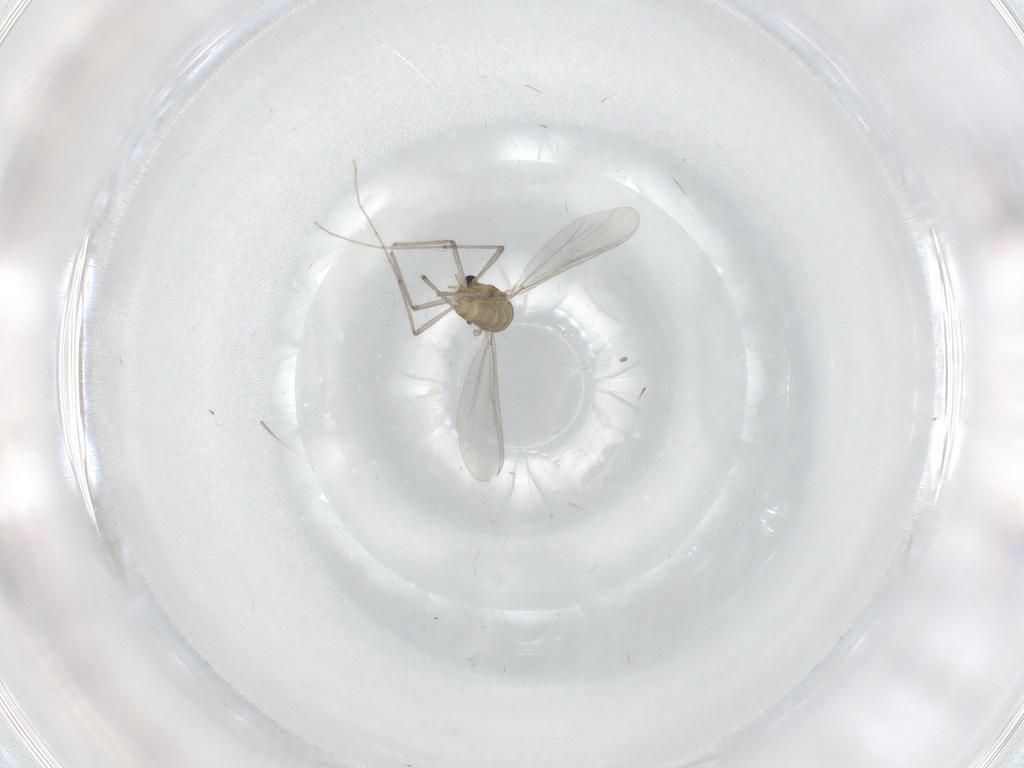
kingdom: Animalia
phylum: Arthropoda
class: Insecta
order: Diptera
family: Chironomidae
